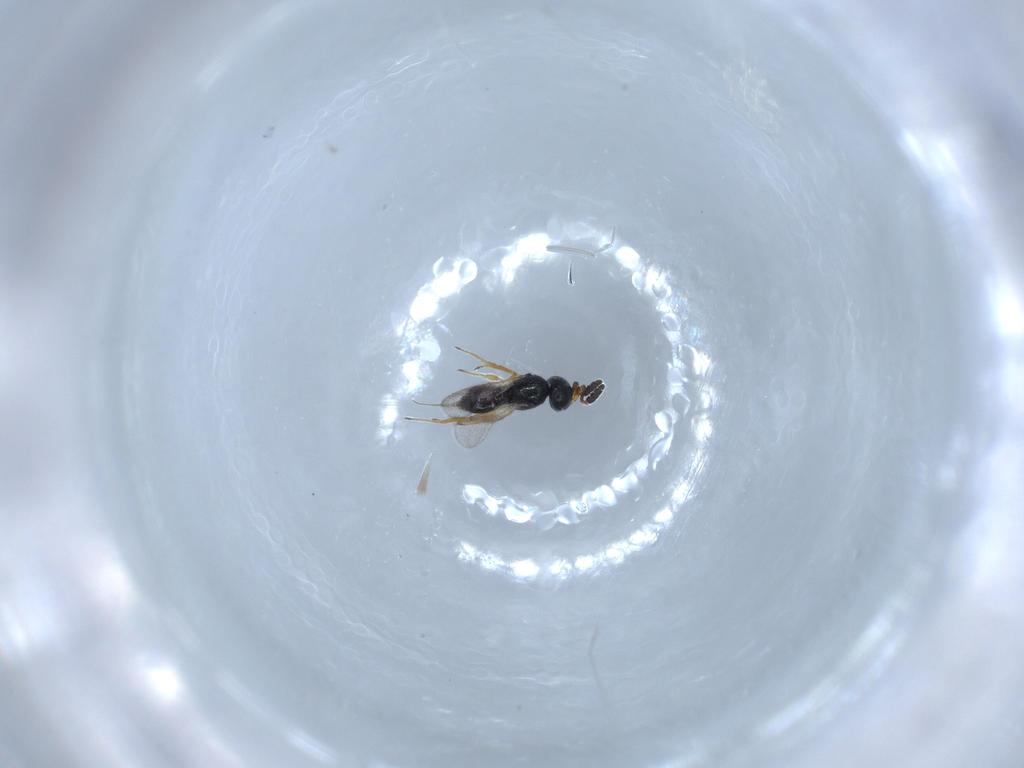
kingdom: Animalia
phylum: Arthropoda
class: Insecta
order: Hymenoptera
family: Scelionidae
